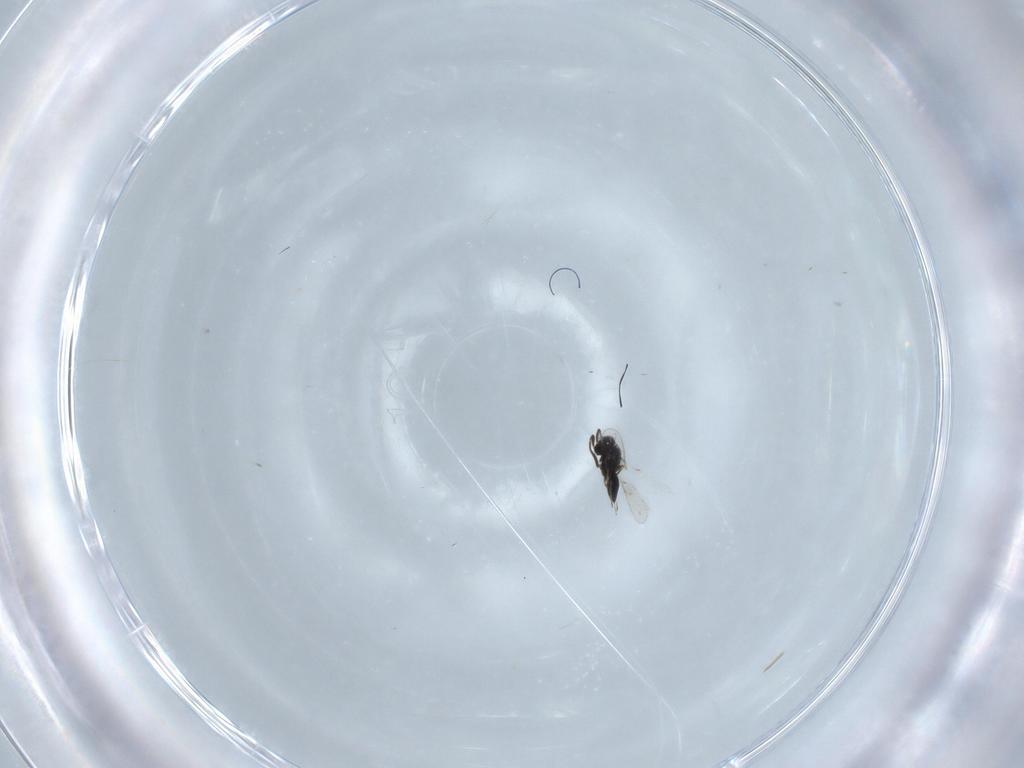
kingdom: Animalia
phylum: Arthropoda
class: Insecta
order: Hymenoptera
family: Scelionidae
